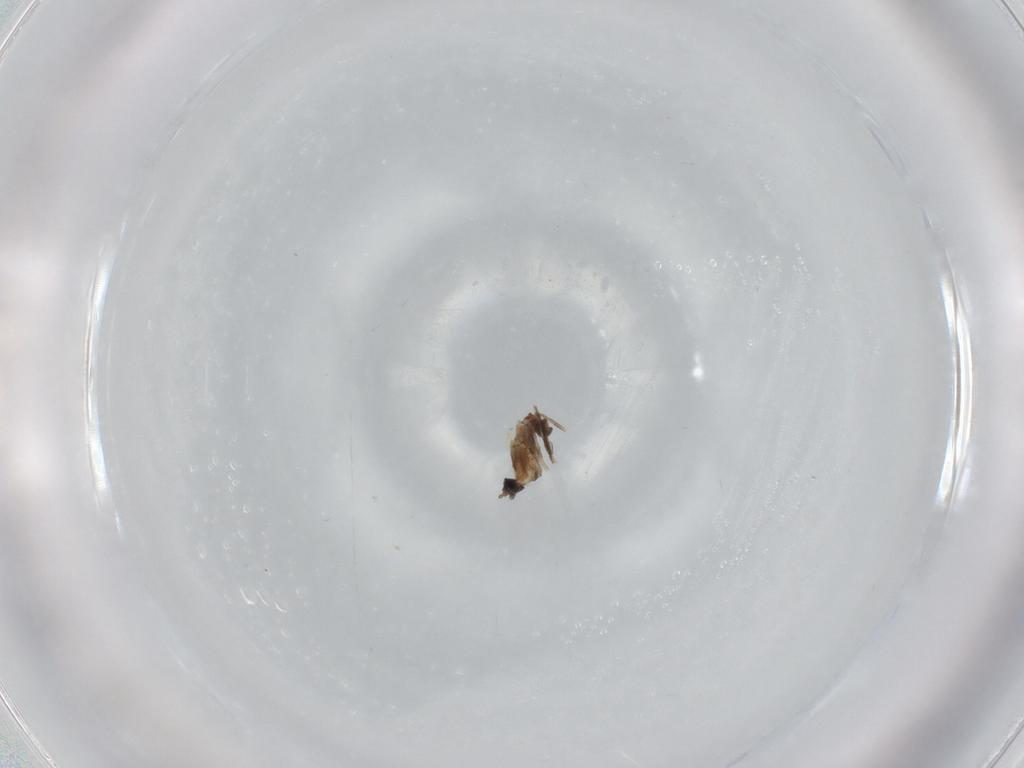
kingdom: Animalia
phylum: Arthropoda
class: Insecta
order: Diptera
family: Cecidomyiidae
